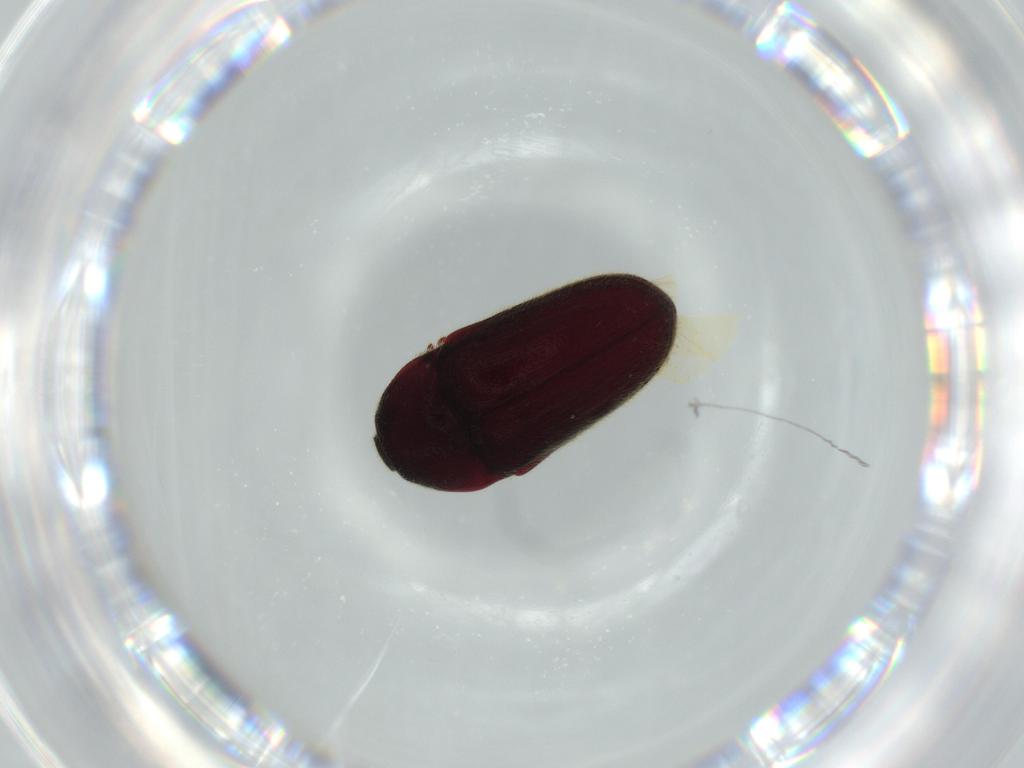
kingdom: Animalia
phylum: Arthropoda
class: Insecta
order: Coleoptera
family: Throscidae
